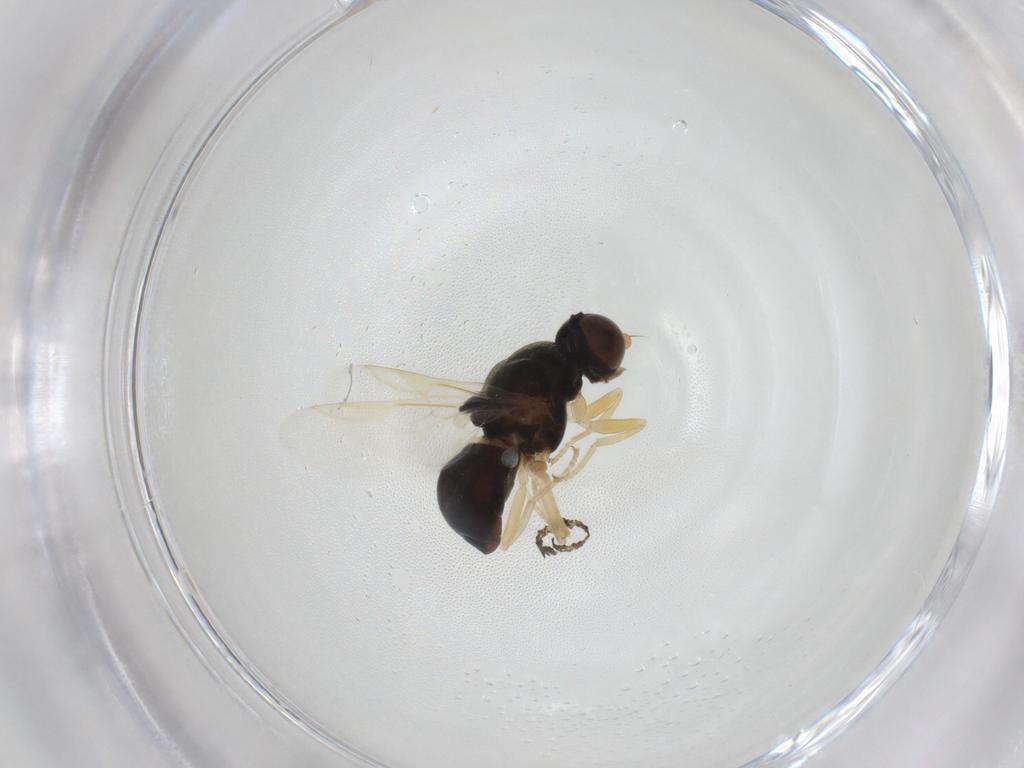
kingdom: Animalia
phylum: Arthropoda
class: Insecta
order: Diptera
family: Stratiomyidae
